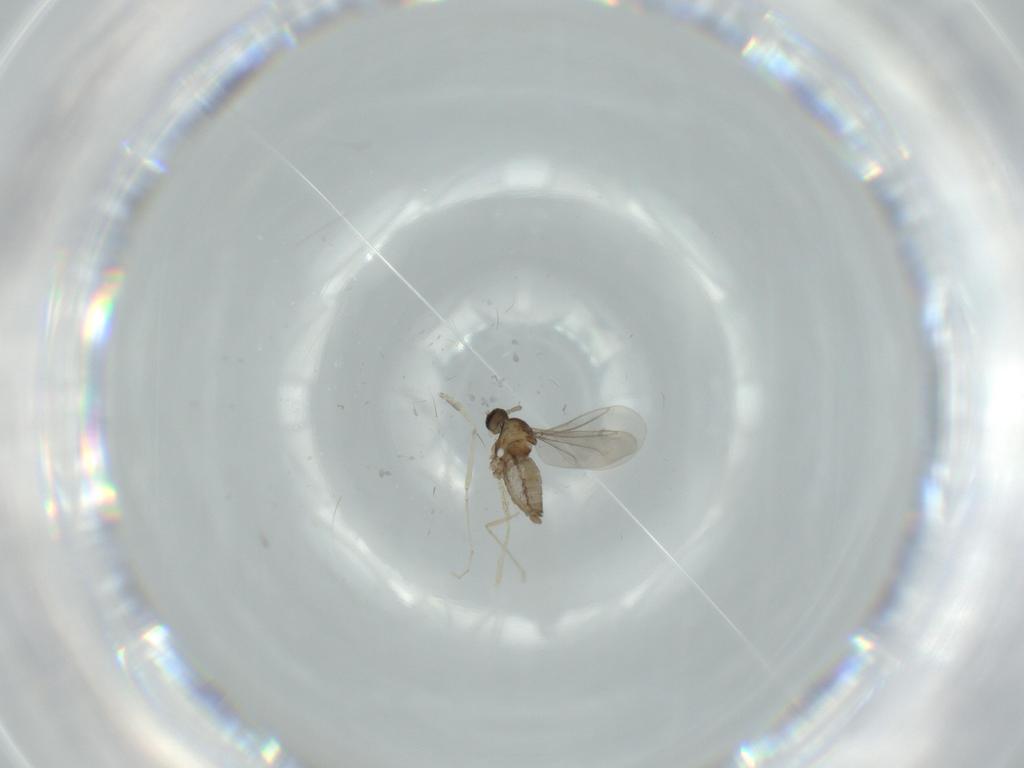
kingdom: Animalia
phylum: Arthropoda
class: Insecta
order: Diptera
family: Cecidomyiidae
